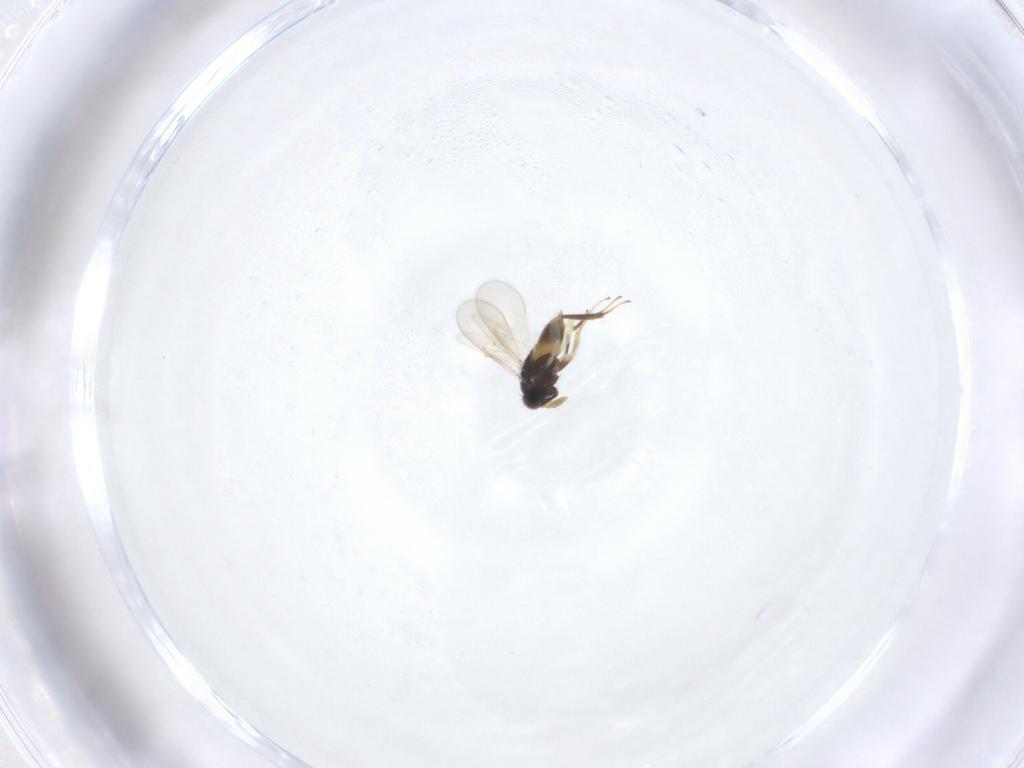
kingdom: Animalia
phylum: Arthropoda
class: Insecta
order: Hymenoptera
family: Aphelinidae
